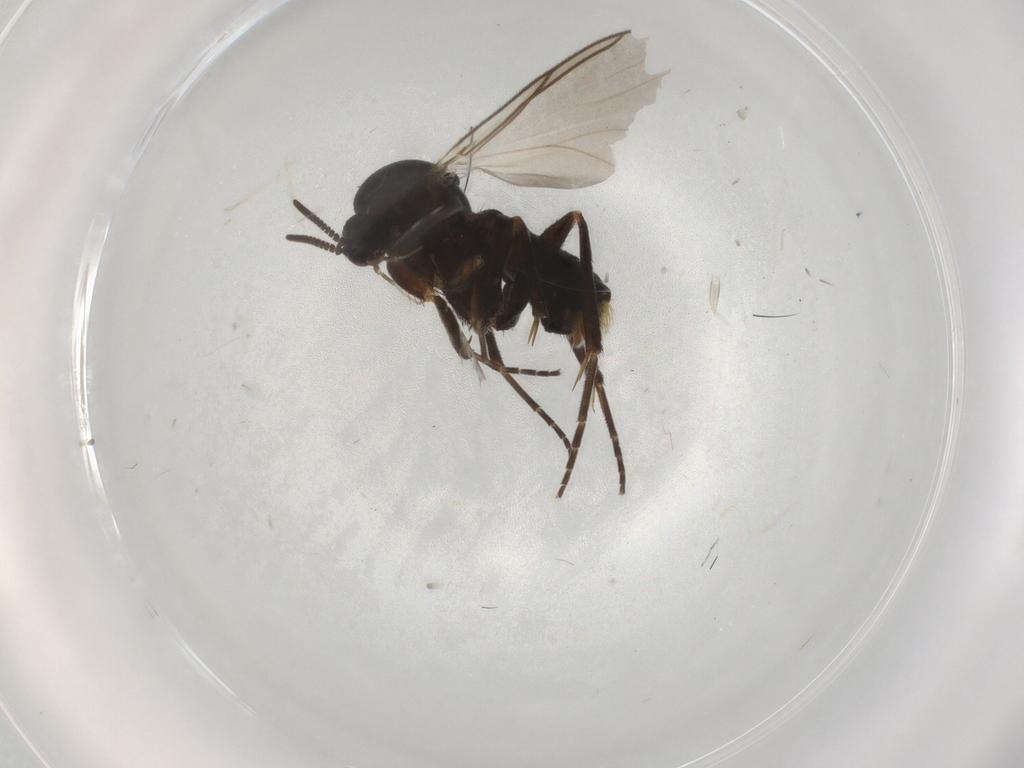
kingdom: Animalia
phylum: Arthropoda
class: Insecta
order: Diptera
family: Mycetophilidae
